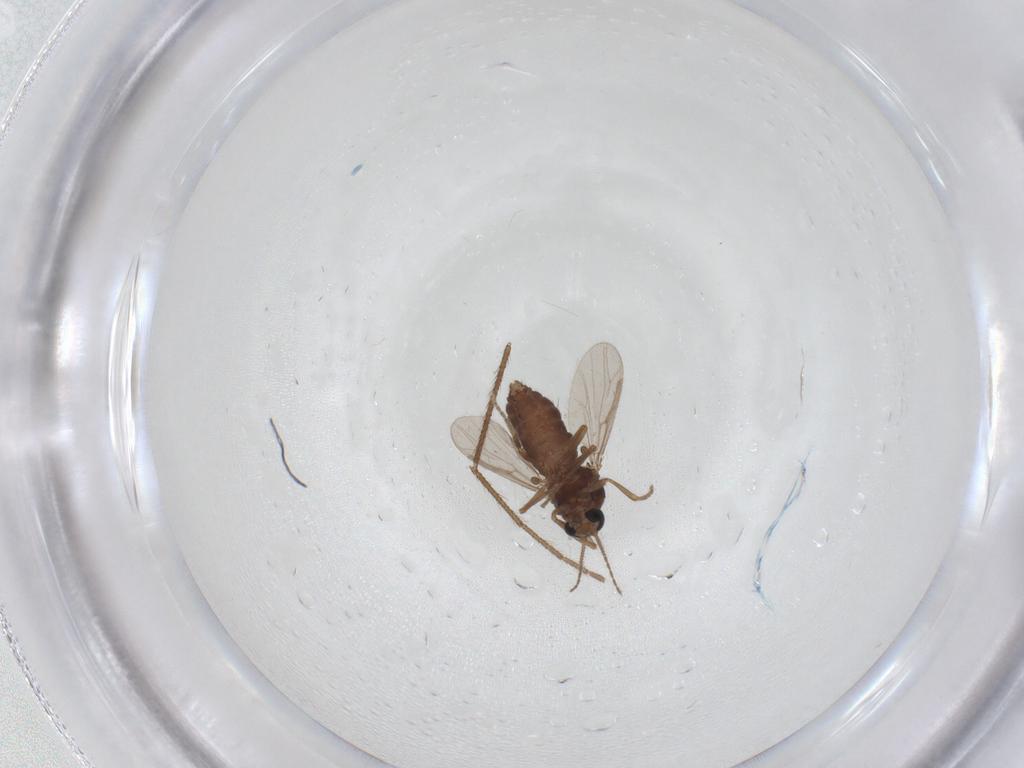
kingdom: Animalia
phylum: Arthropoda
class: Insecta
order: Diptera
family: Ceratopogonidae
